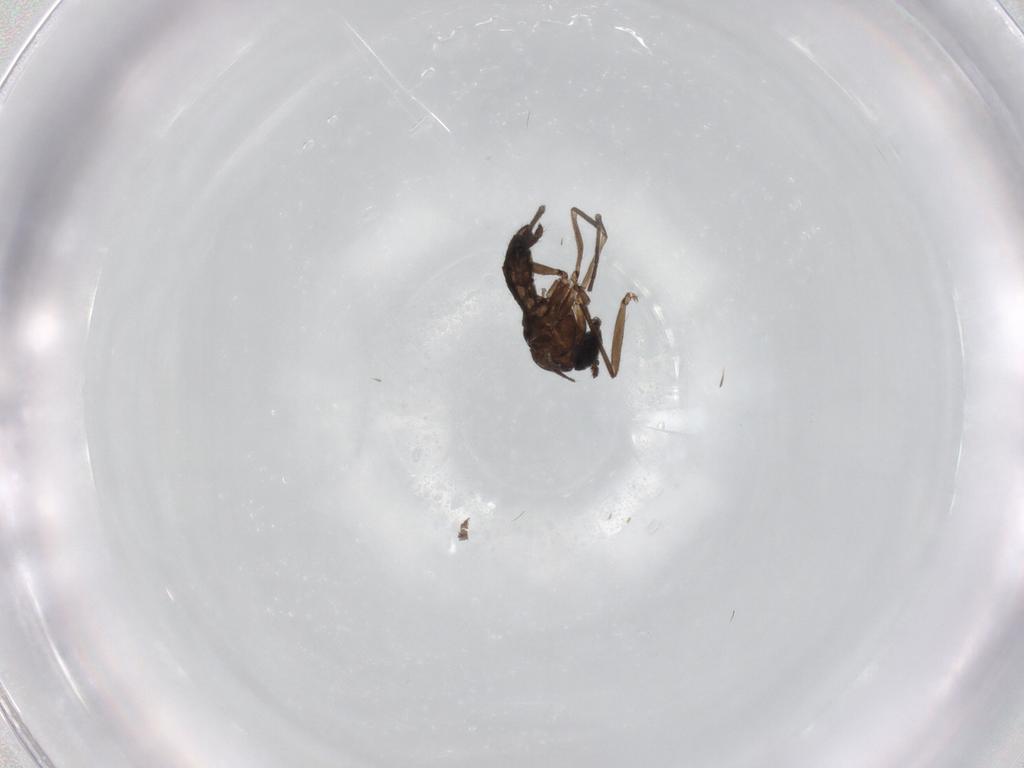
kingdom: Animalia
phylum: Arthropoda
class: Insecta
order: Diptera
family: Limoniidae
